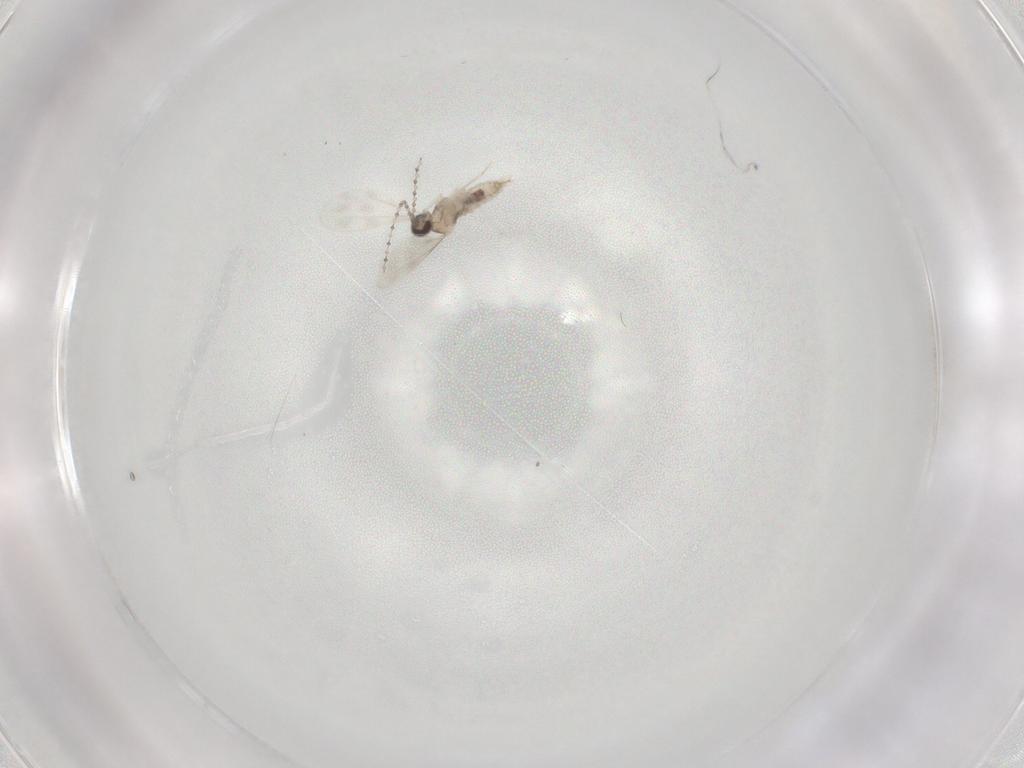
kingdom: Animalia
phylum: Arthropoda
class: Insecta
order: Diptera
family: Cecidomyiidae
